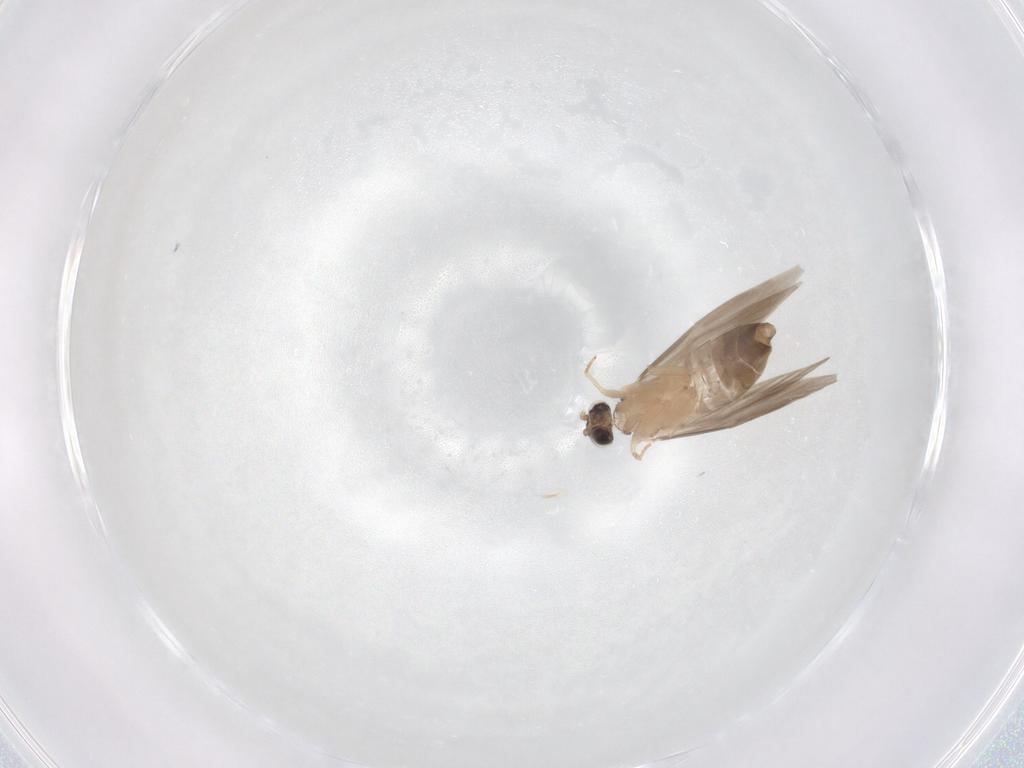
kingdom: Animalia
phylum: Arthropoda
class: Insecta
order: Trichoptera
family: Hydroptilidae
